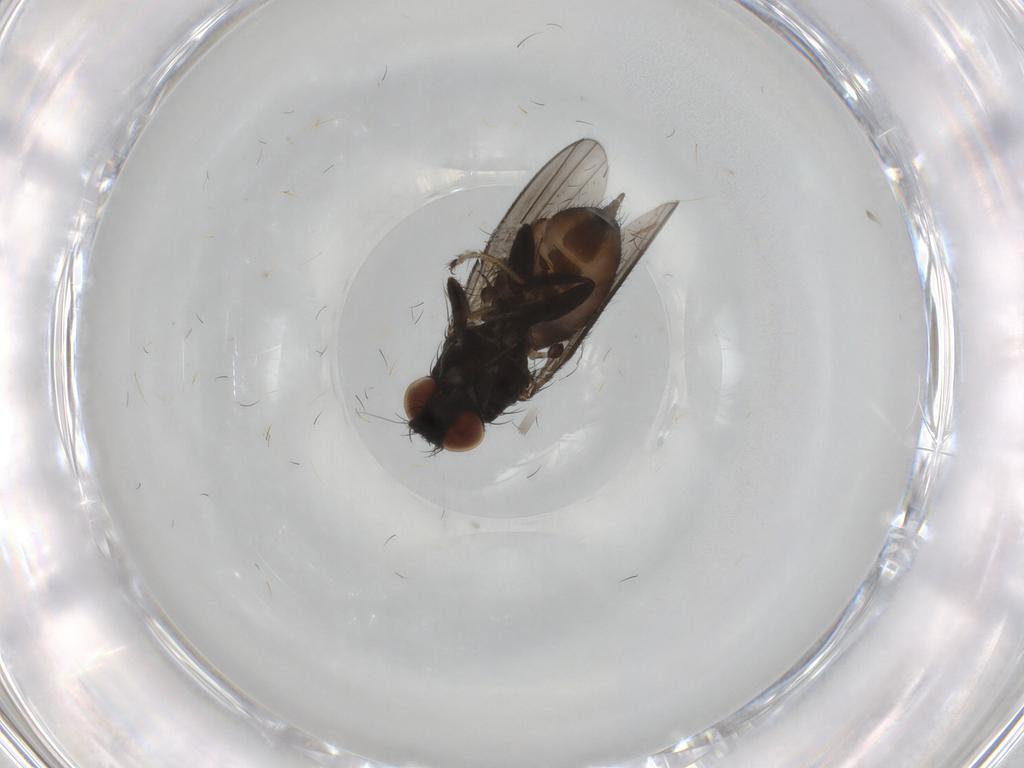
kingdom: Animalia
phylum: Arthropoda
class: Insecta
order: Diptera
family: Milichiidae
